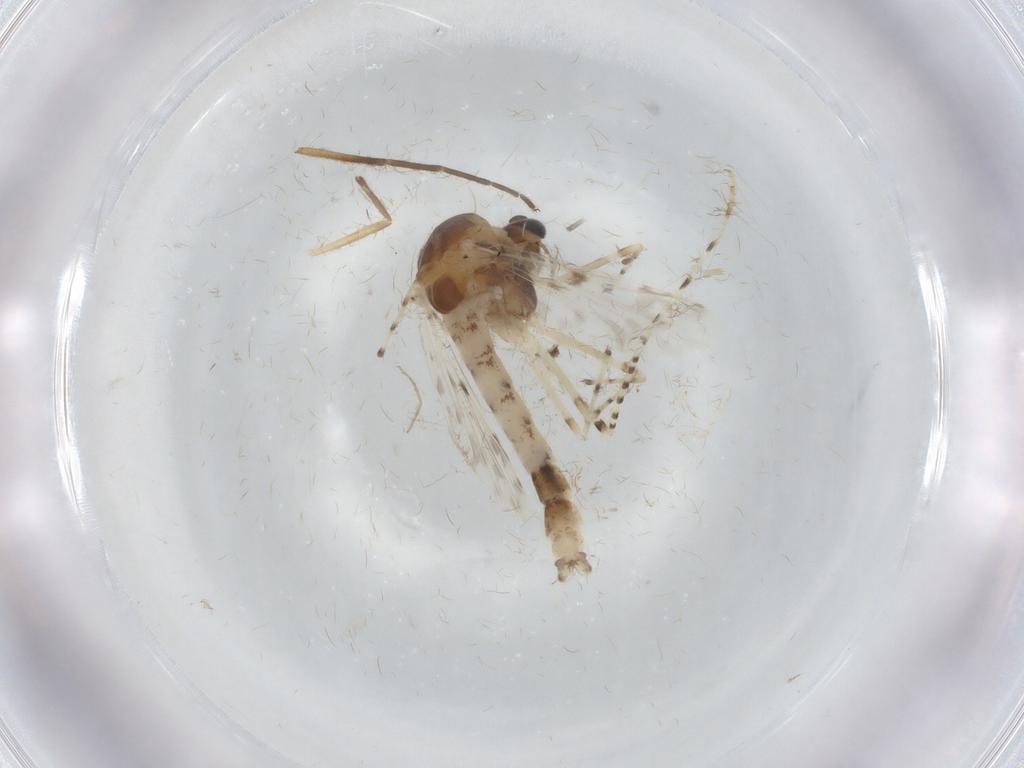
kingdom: Animalia
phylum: Arthropoda
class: Insecta
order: Diptera
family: Chironomidae
